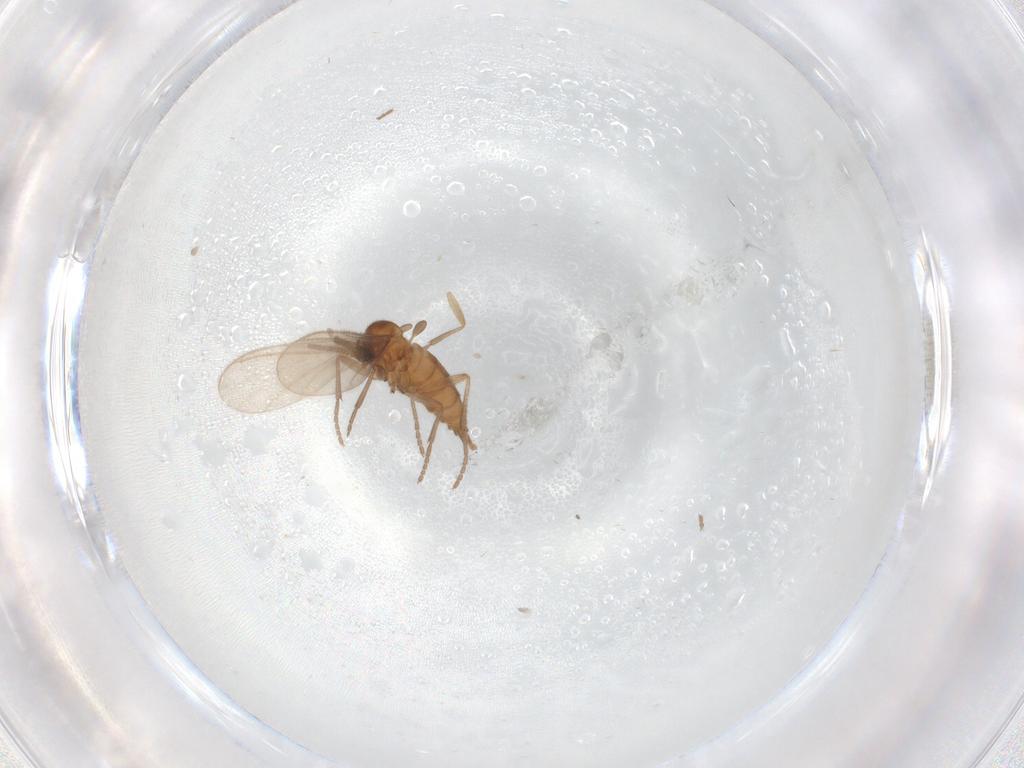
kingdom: Animalia
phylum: Arthropoda
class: Insecta
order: Diptera
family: Sciaridae
